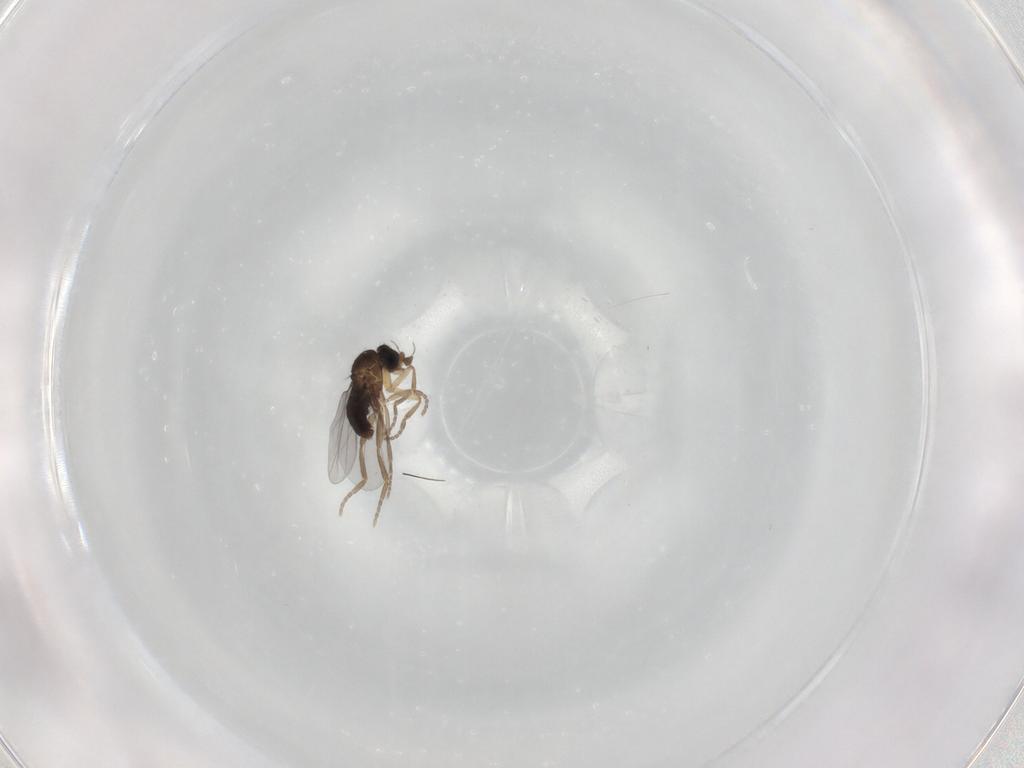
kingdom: Animalia
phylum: Arthropoda
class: Insecta
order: Diptera
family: Phoridae
